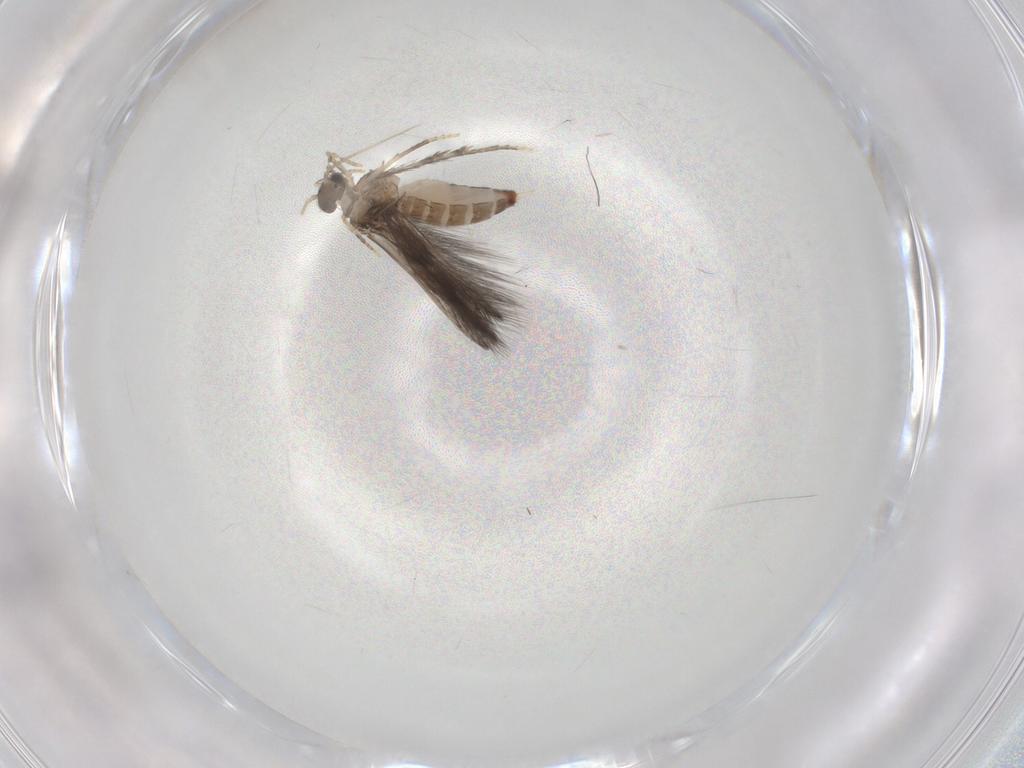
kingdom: Animalia
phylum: Arthropoda
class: Insecta
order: Trichoptera
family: Hydroptilidae
